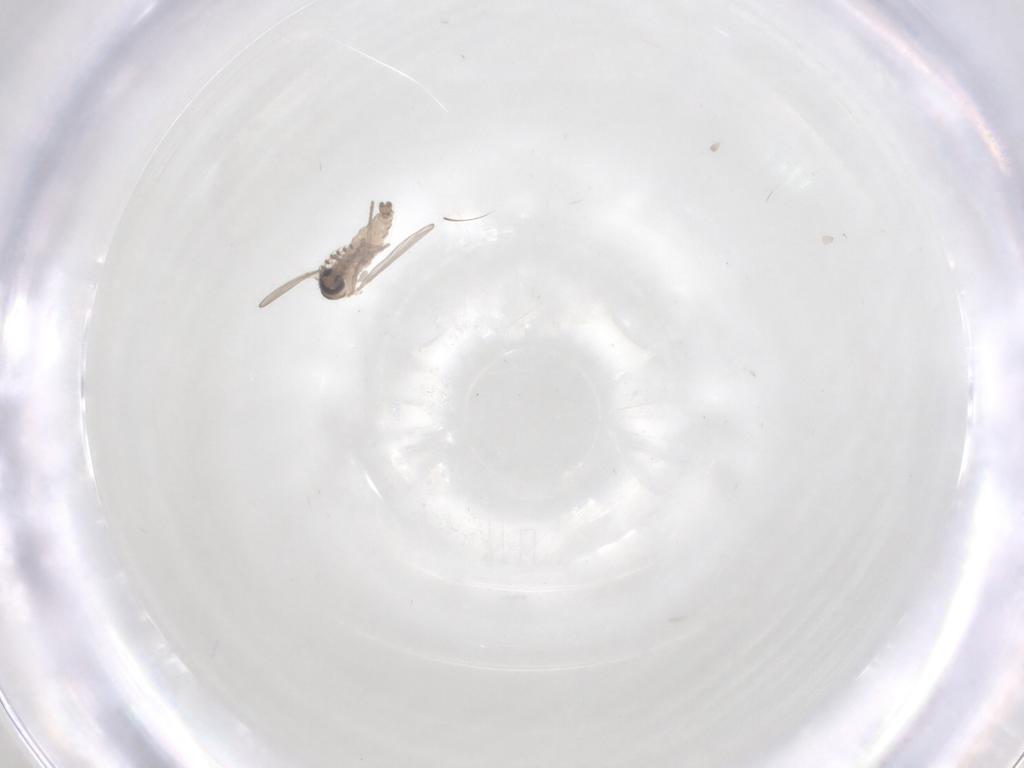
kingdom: Animalia
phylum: Arthropoda
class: Insecta
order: Diptera
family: Psychodidae
